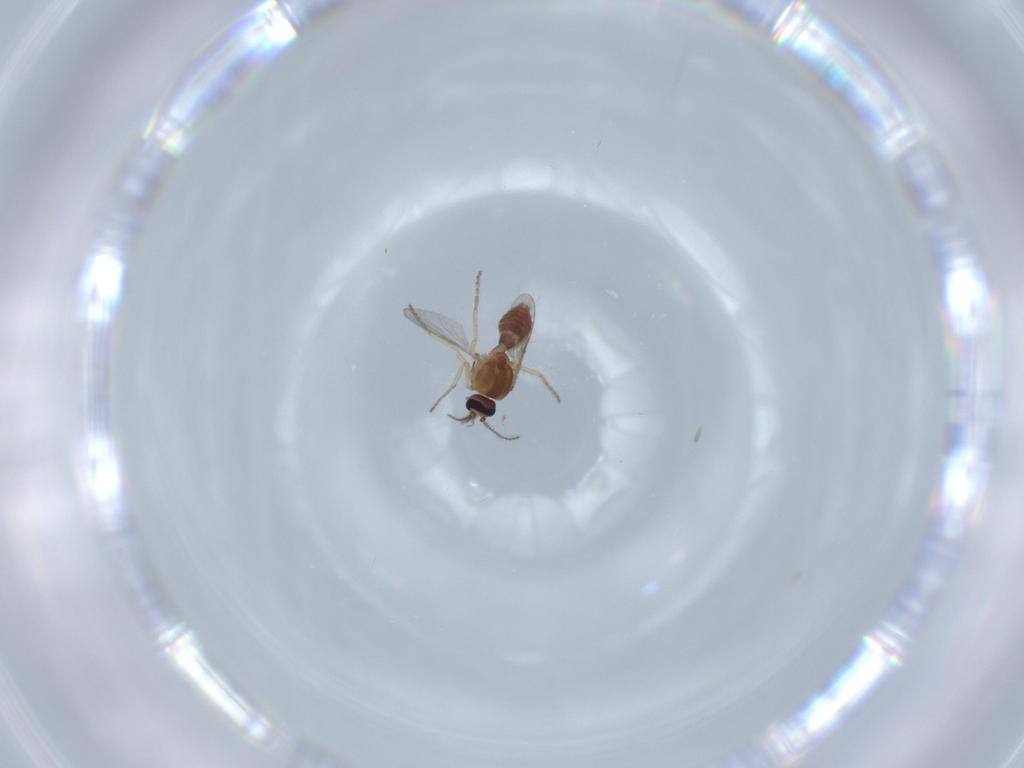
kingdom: Animalia
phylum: Arthropoda
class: Insecta
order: Diptera
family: Ceratopogonidae
